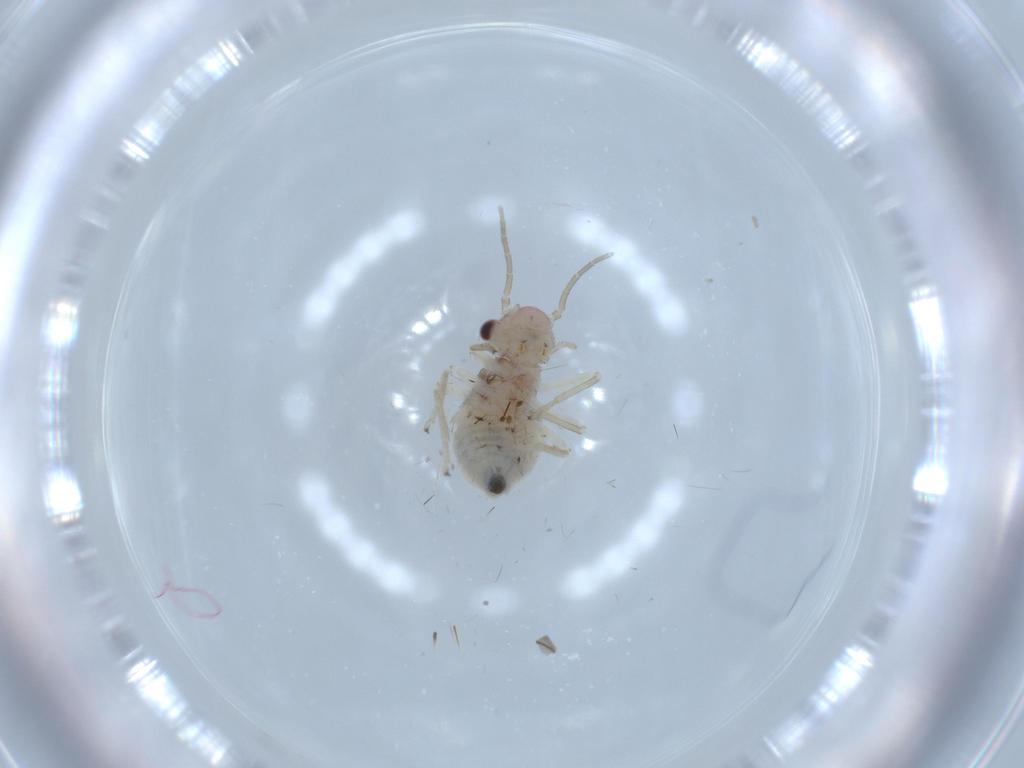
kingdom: Animalia
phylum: Arthropoda
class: Insecta
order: Psocodea
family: Amphipsocidae
